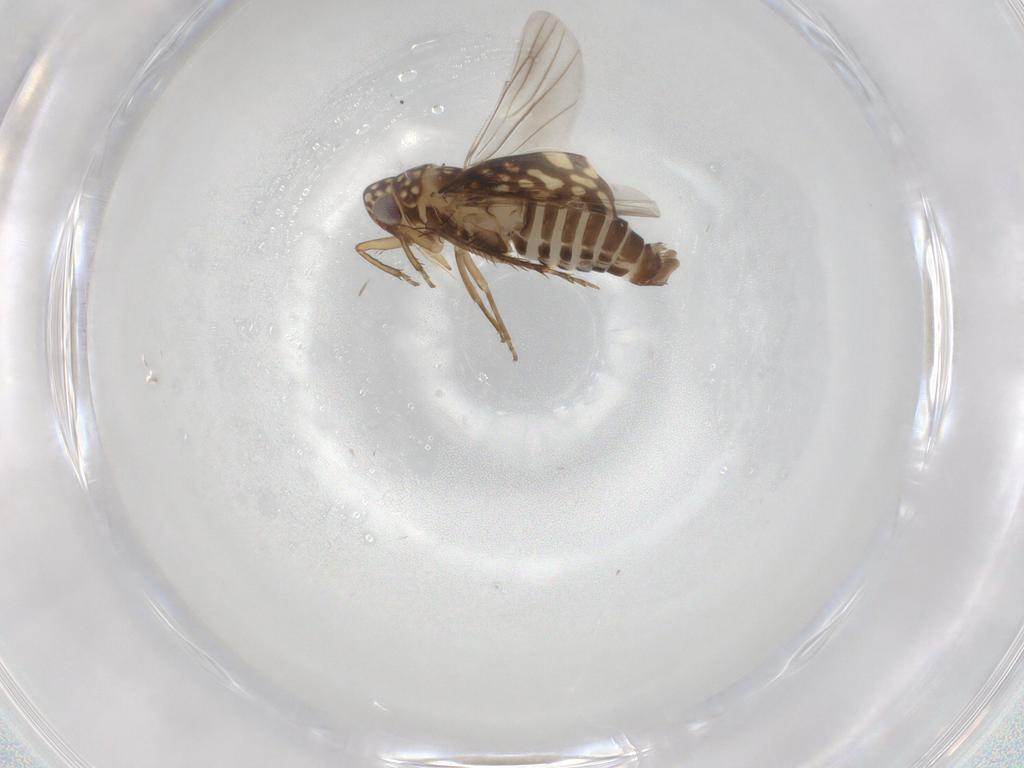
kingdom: Animalia
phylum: Arthropoda
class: Insecta
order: Hemiptera
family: Cicadellidae
